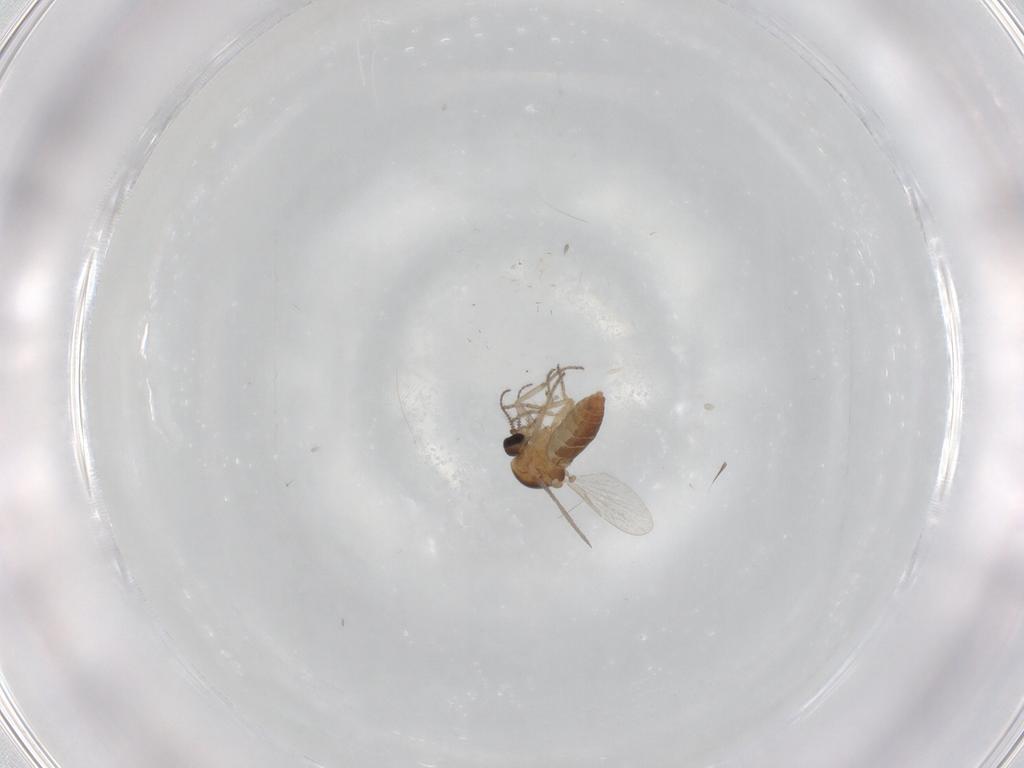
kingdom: Animalia
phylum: Arthropoda
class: Insecta
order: Diptera
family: Ceratopogonidae
